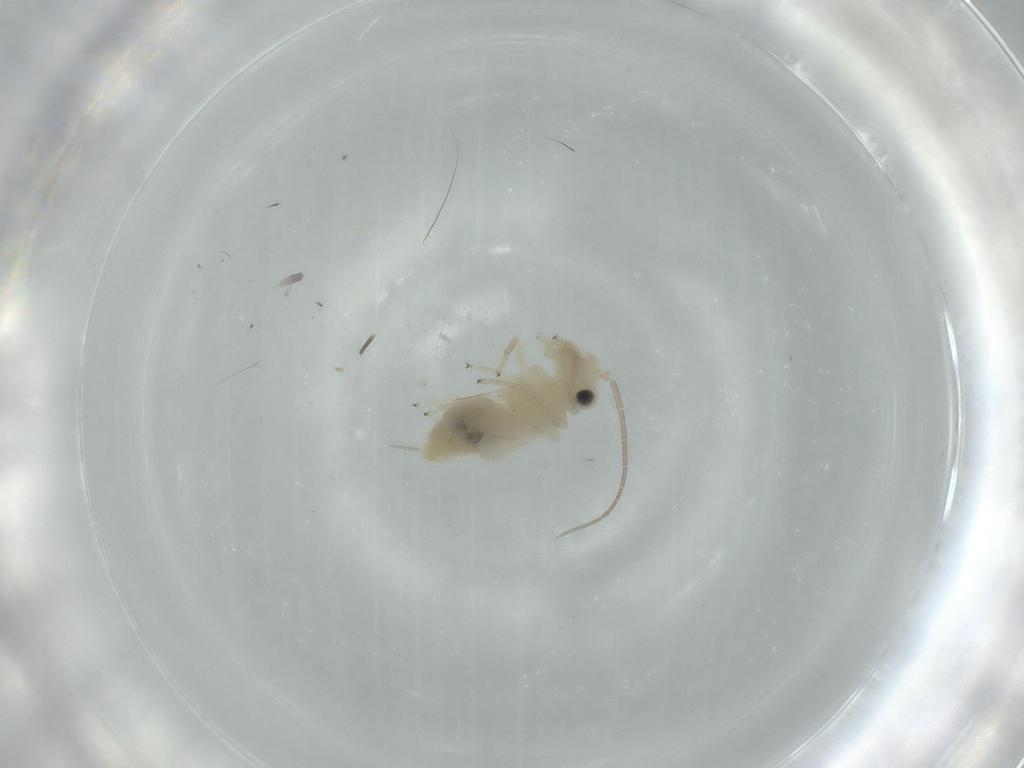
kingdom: Animalia
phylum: Arthropoda
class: Insecta
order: Psocodea
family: Caeciliusidae
